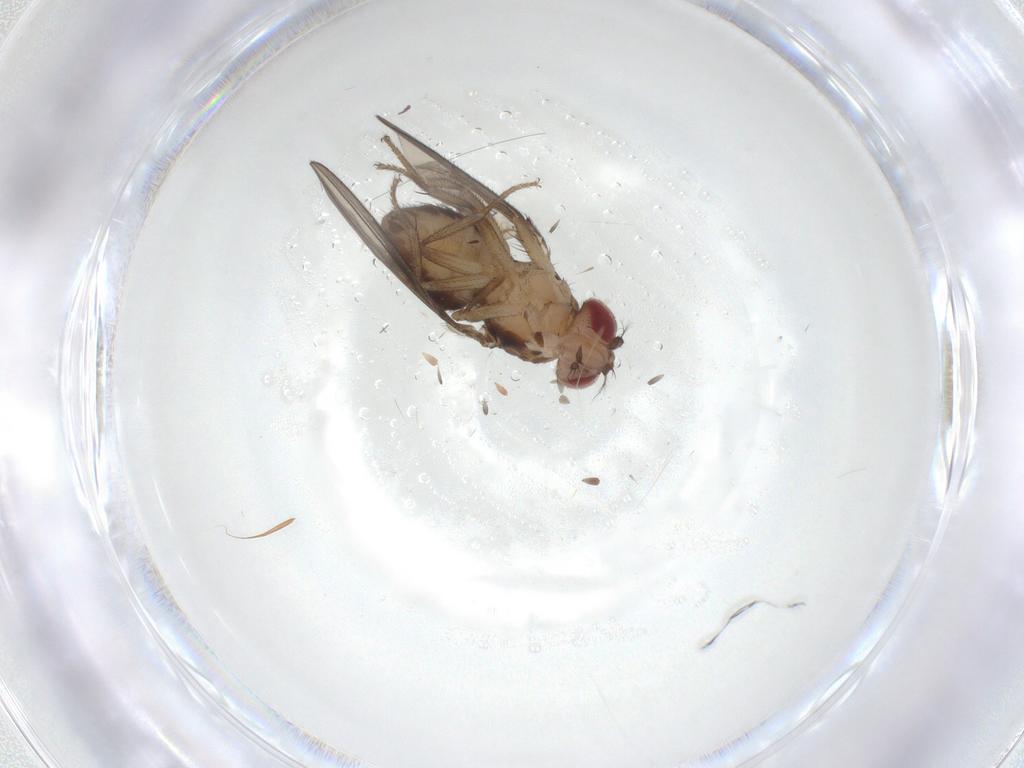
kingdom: Animalia
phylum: Arthropoda
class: Insecta
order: Diptera
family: Drosophilidae
